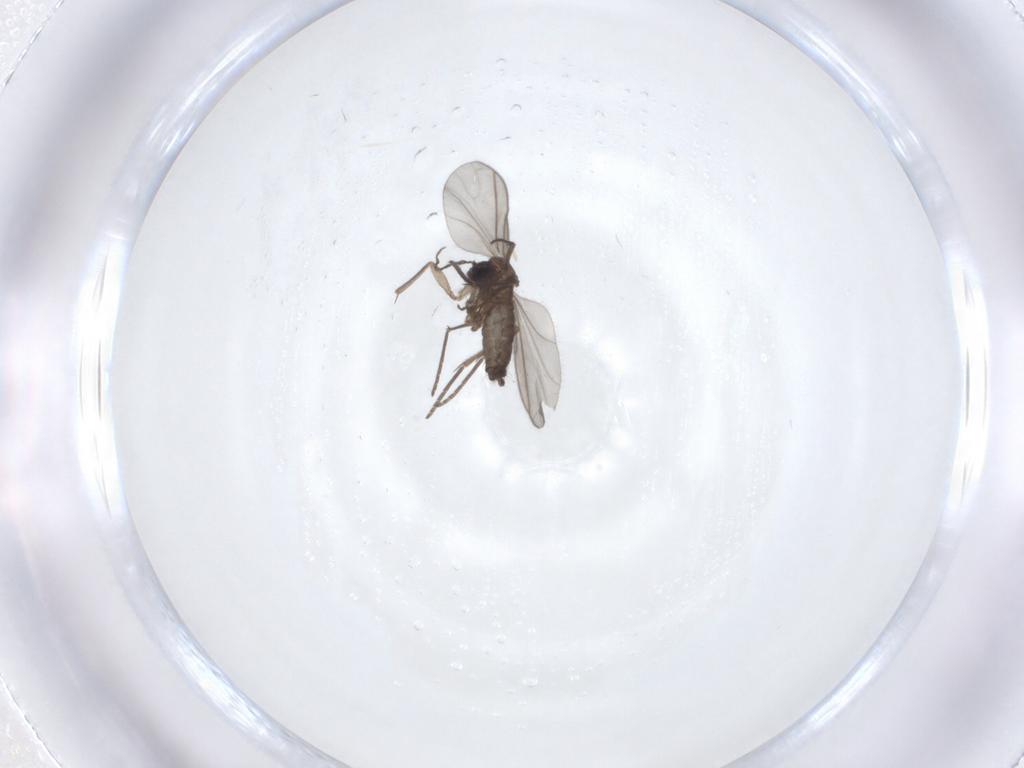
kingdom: Animalia
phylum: Arthropoda
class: Insecta
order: Diptera
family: Sciaridae
